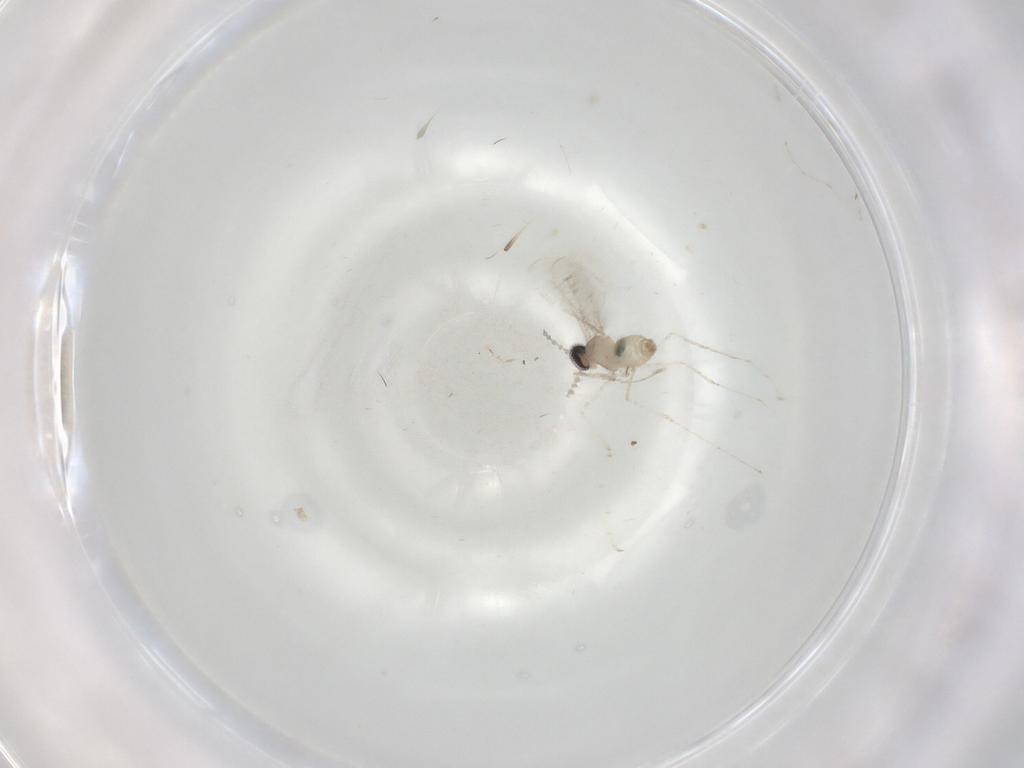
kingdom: Animalia
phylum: Arthropoda
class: Insecta
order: Diptera
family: Cecidomyiidae
